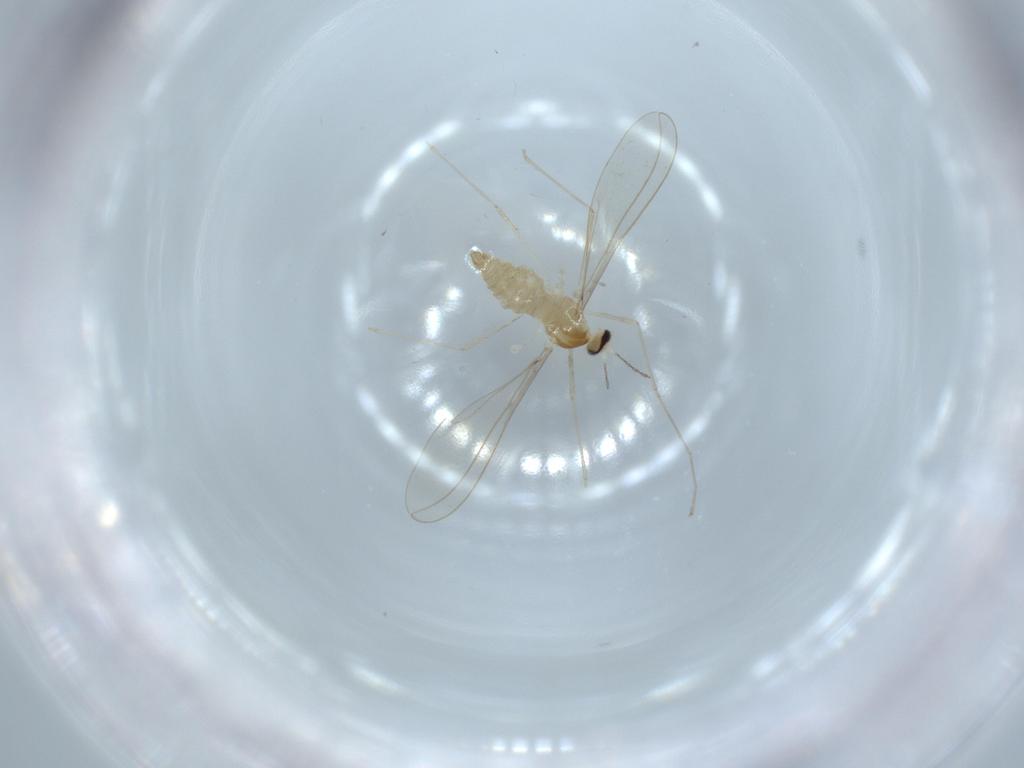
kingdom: Animalia
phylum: Arthropoda
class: Insecta
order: Diptera
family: Cecidomyiidae
